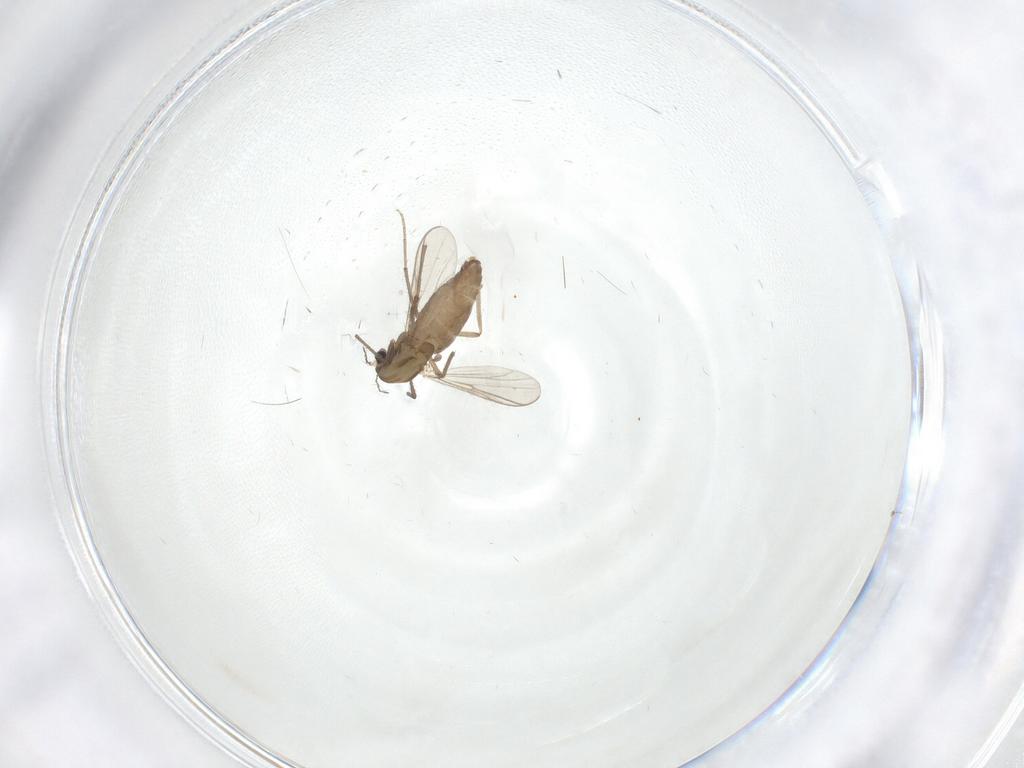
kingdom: Animalia
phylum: Arthropoda
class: Insecta
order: Diptera
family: Chironomidae
